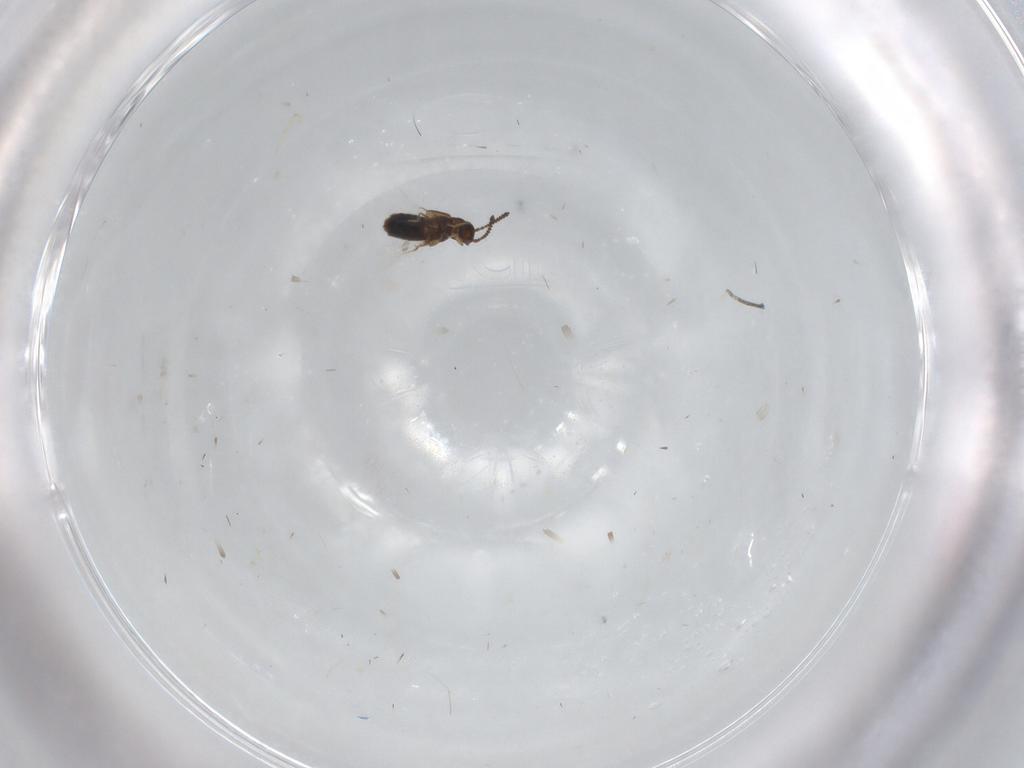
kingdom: Animalia
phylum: Arthropoda
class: Insecta
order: Coleoptera
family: Staphylinidae
